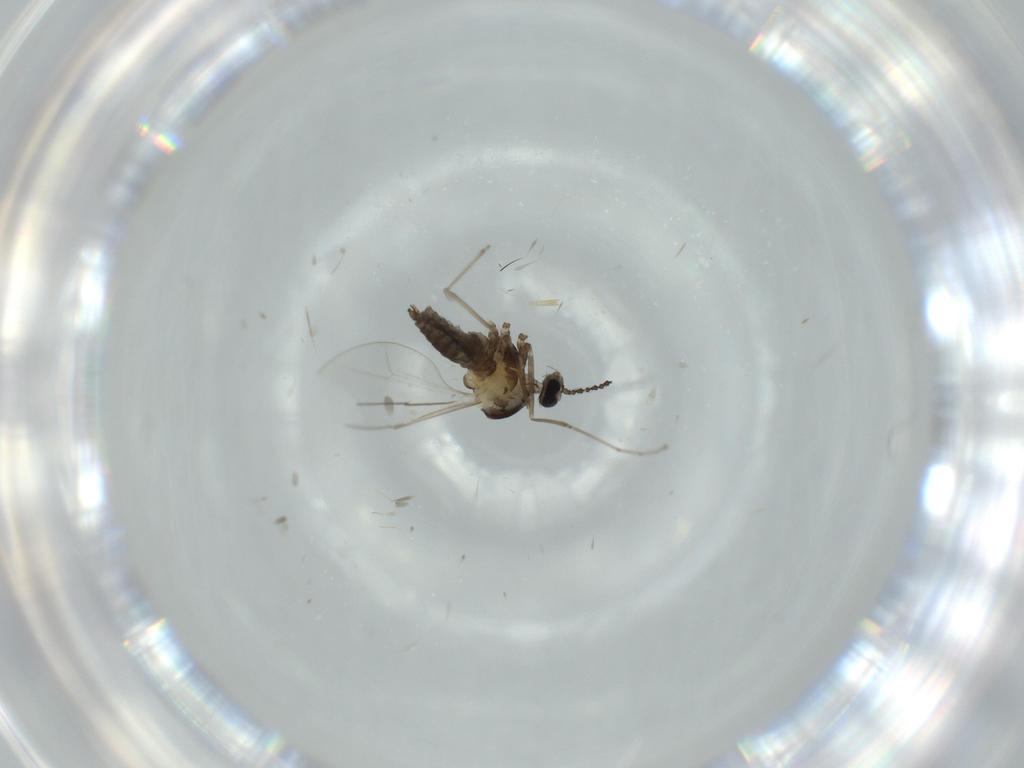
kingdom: Animalia
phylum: Arthropoda
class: Insecta
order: Diptera
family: Cecidomyiidae
